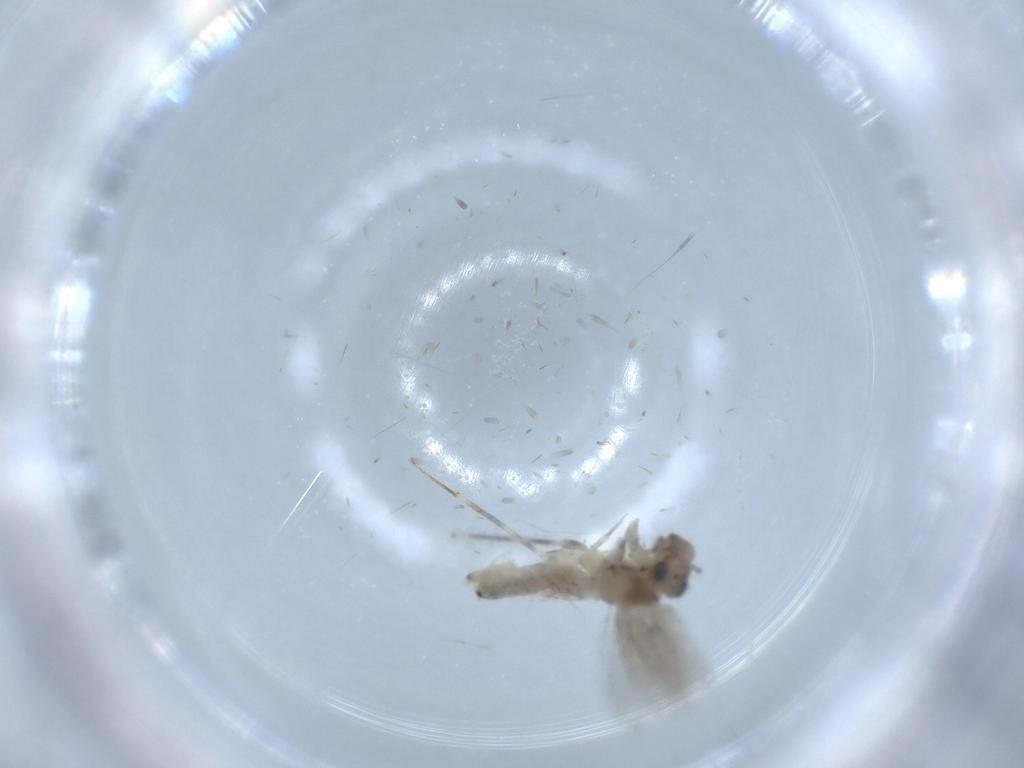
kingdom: Animalia
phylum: Arthropoda
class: Insecta
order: Psocodea
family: Lepidopsocidae
